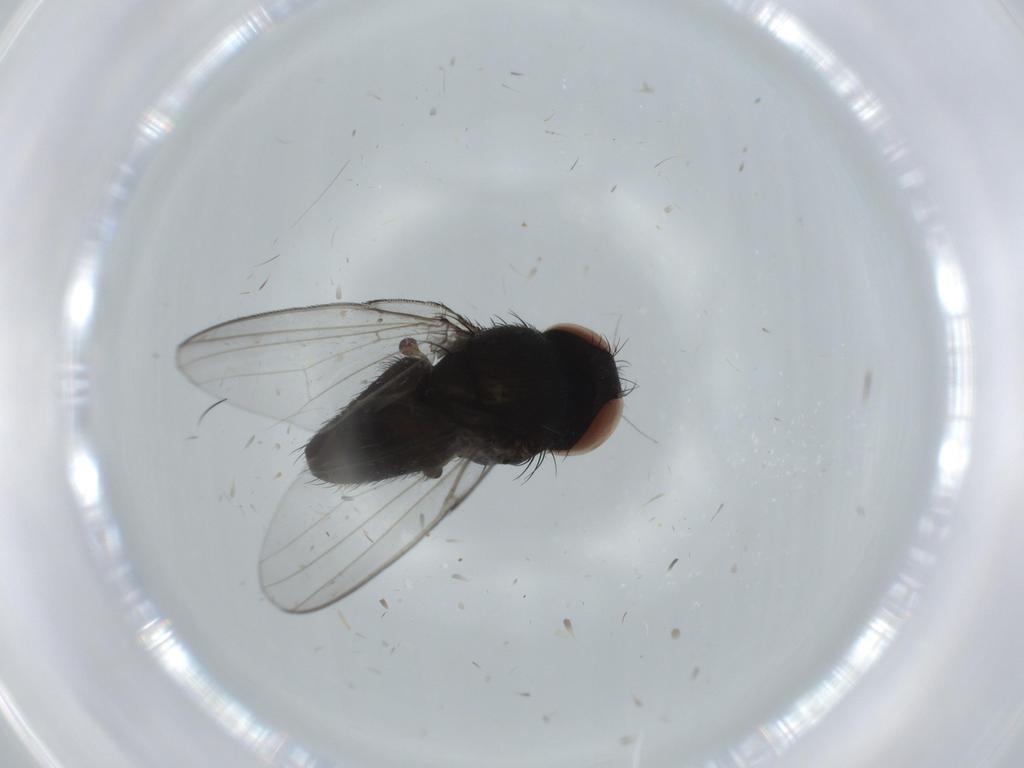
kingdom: Animalia
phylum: Arthropoda
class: Insecta
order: Diptera
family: Milichiidae
